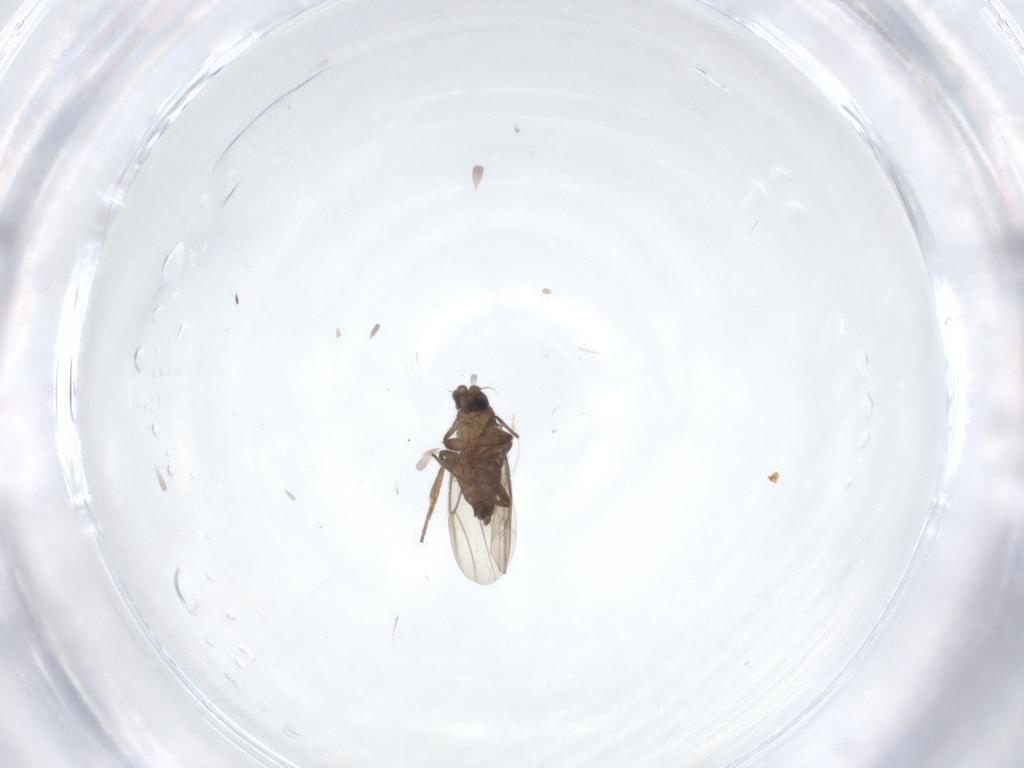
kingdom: Animalia
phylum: Arthropoda
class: Insecta
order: Diptera
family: Chironomidae
